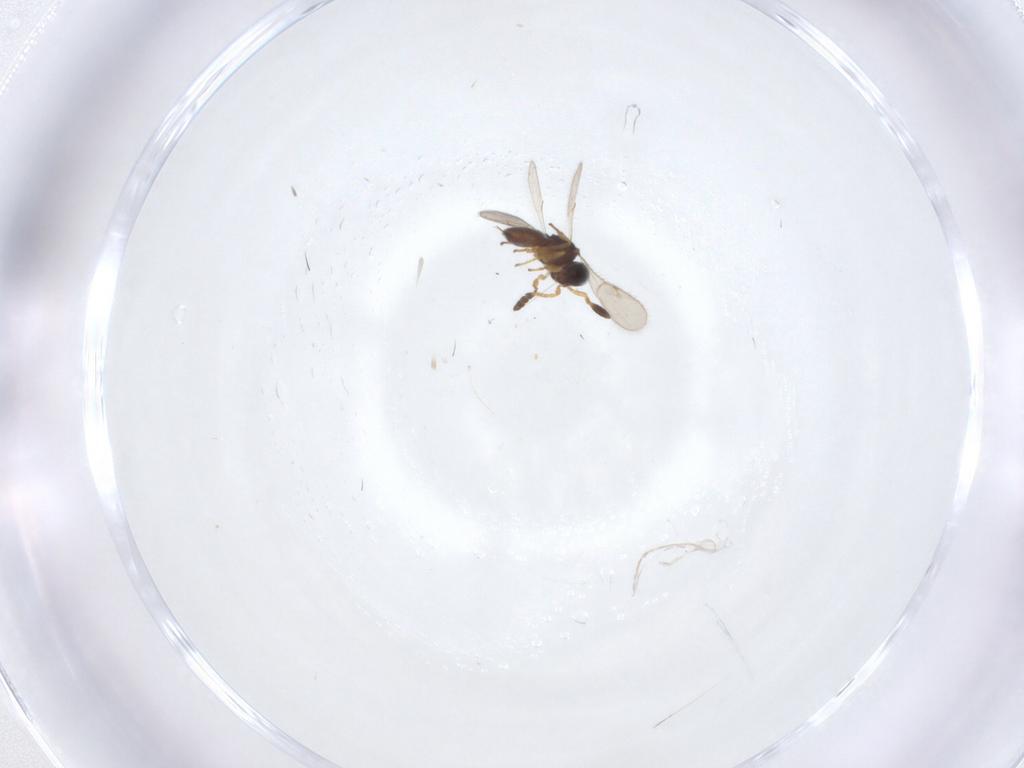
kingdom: Animalia
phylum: Arthropoda
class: Insecta
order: Hymenoptera
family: Scelionidae
